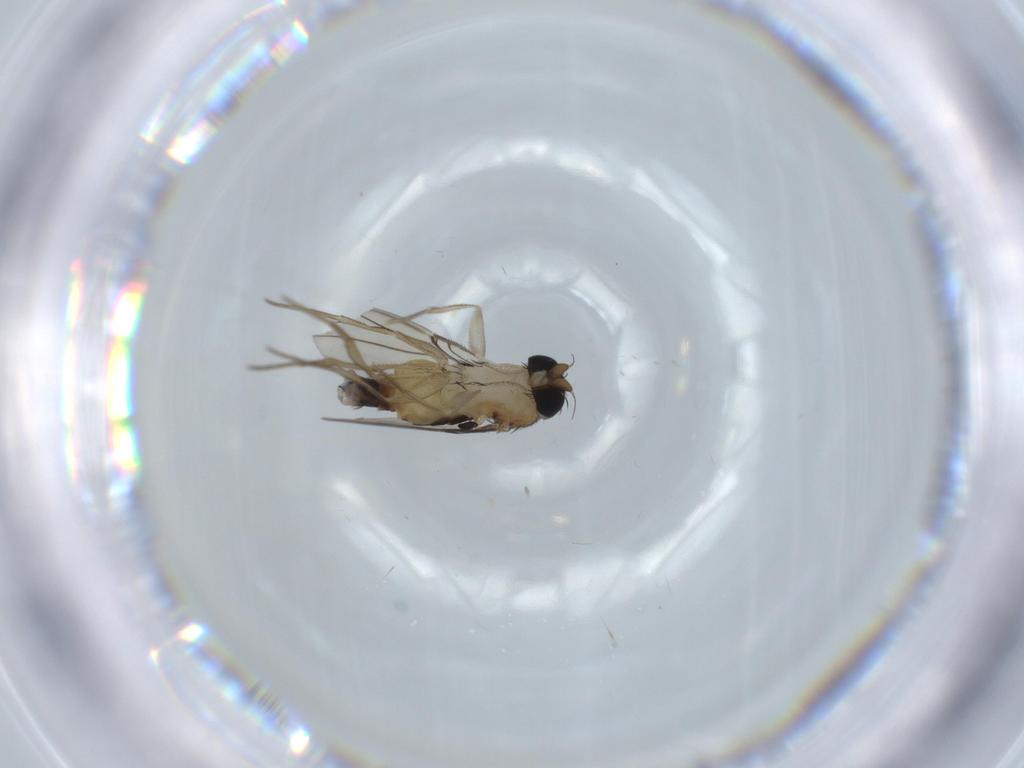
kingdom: Animalia
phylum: Arthropoda
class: Insecta
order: Diptera
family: Phoridae
